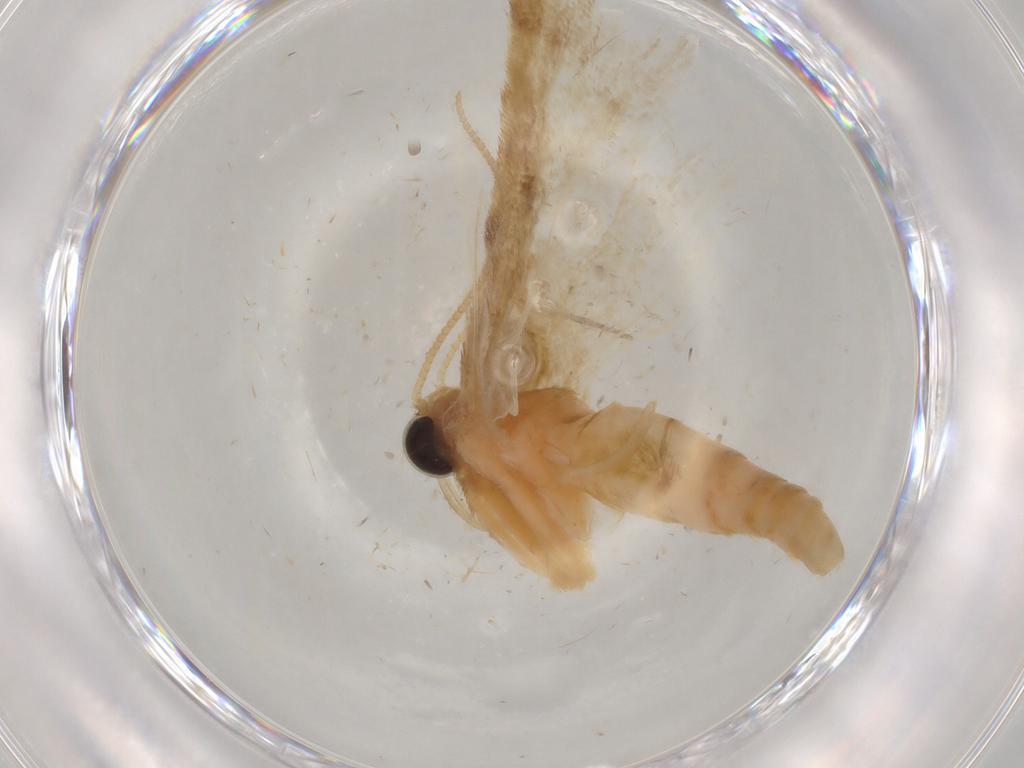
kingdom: Animalia
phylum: Arthropoda
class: Insecta
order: Lepidoptera
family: Geometridae
